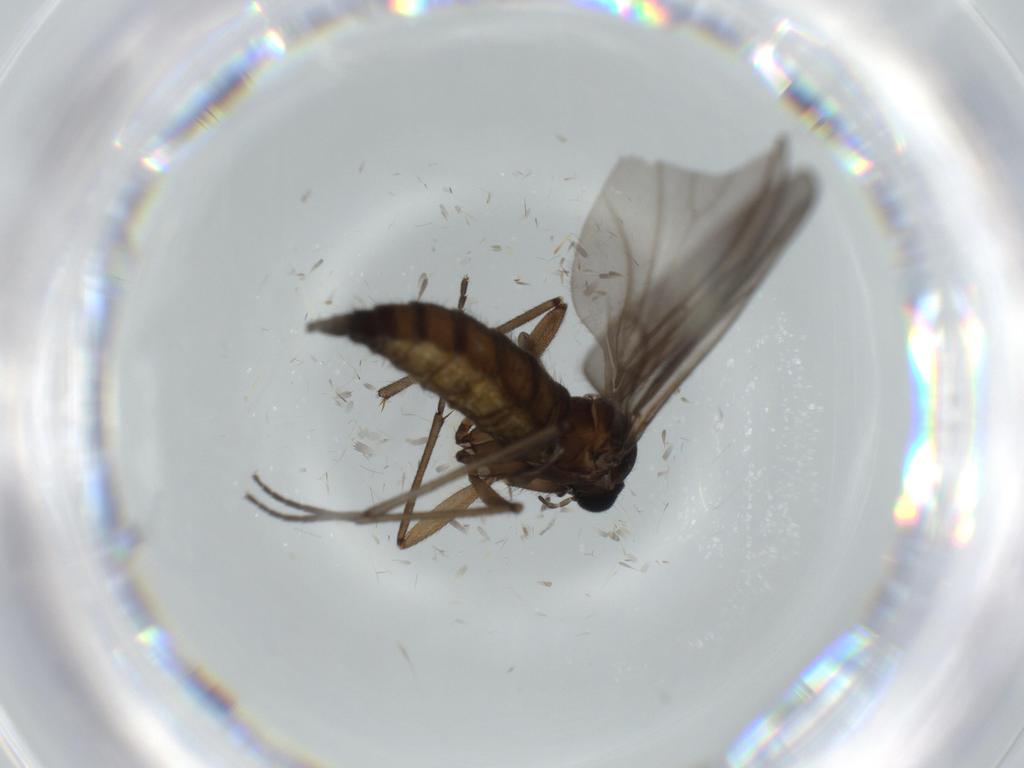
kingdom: Animalia
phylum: Arthropoda
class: Insecta
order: Diptera
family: Sciaridae
